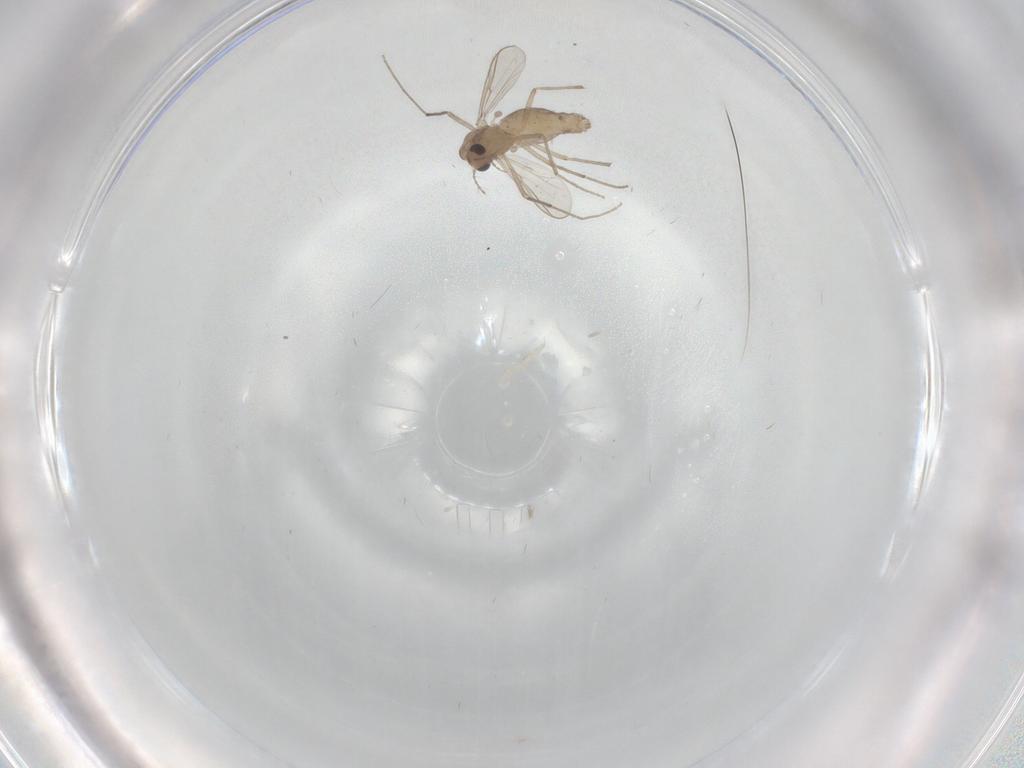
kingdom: Animalia
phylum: Arthropoda
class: Insecta
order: Diptera
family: Chironomidae
